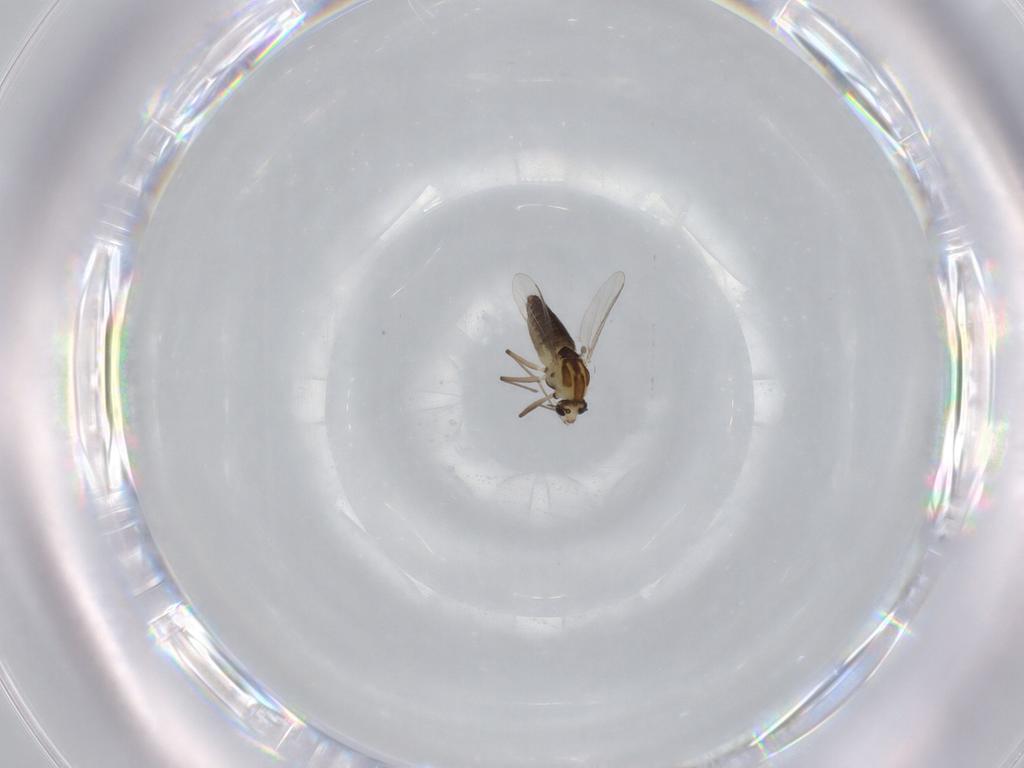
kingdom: Animalia
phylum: Arthropoda
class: Insecta
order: Diptera
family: Chironomidae
